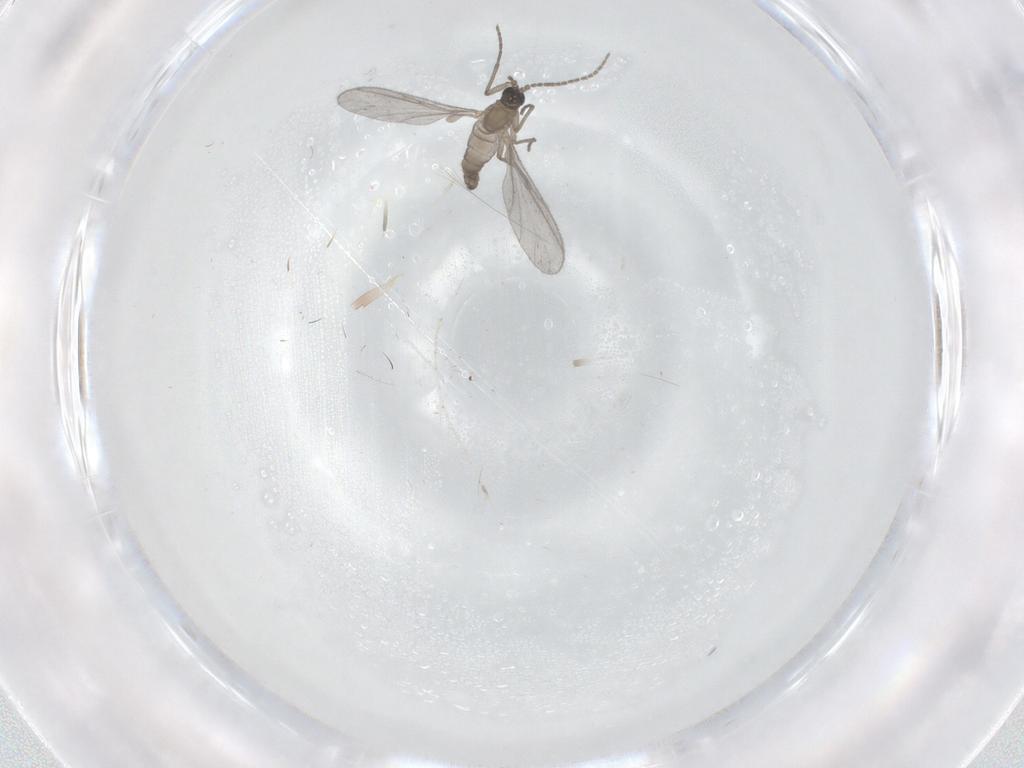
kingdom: Animalia
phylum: Arthropoda
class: Insecta
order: Diptera
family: Sciaridae
